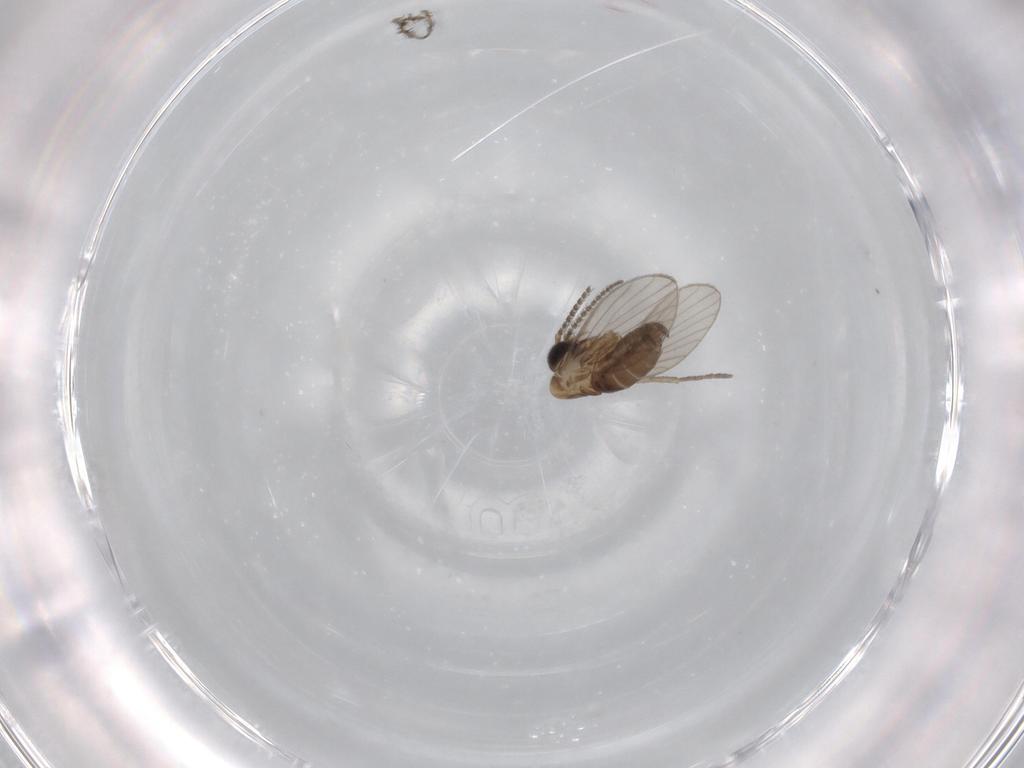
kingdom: Animalia
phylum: Arthropoda
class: Insecta
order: Diptera
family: Psychodidae
